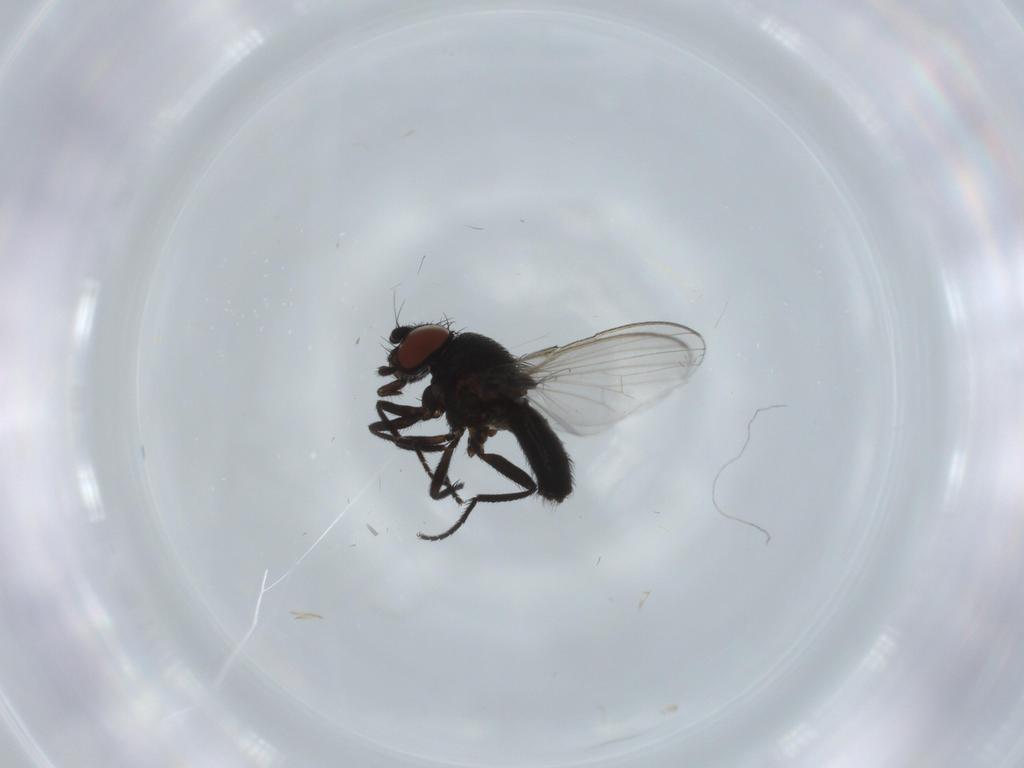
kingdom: Animalia
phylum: Arthropoda
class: Insecta
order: Diptera
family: Milichiidae
